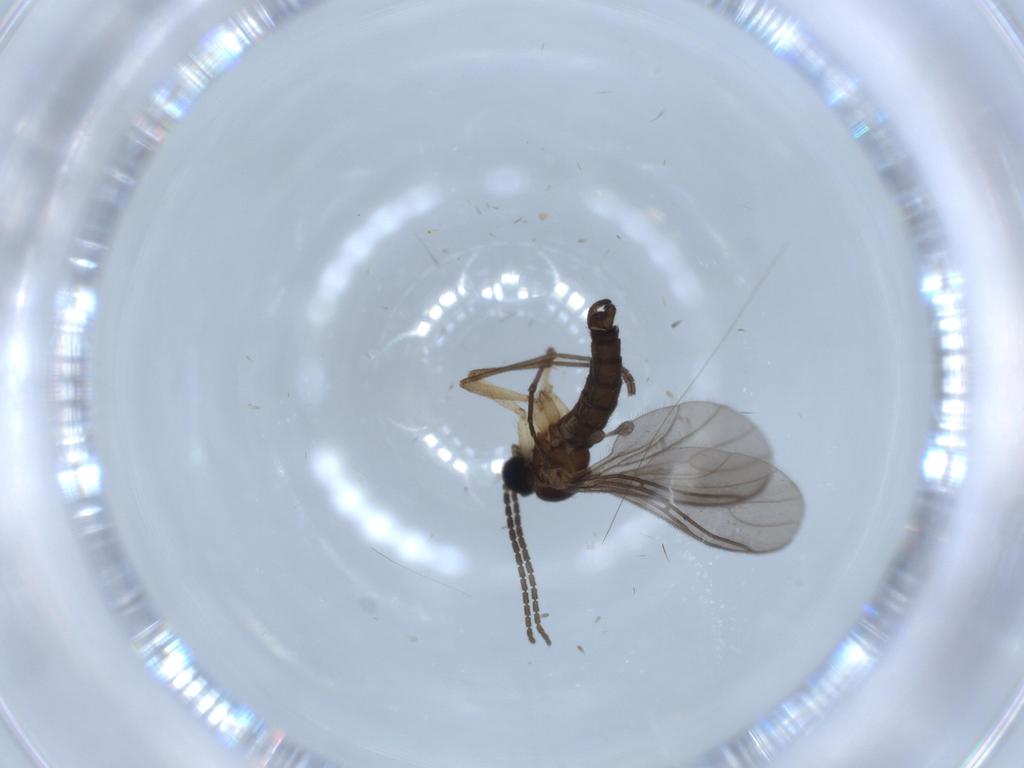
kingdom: Animalia
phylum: Arthropoda
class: Insecta
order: Diptera
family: Sciaridae
